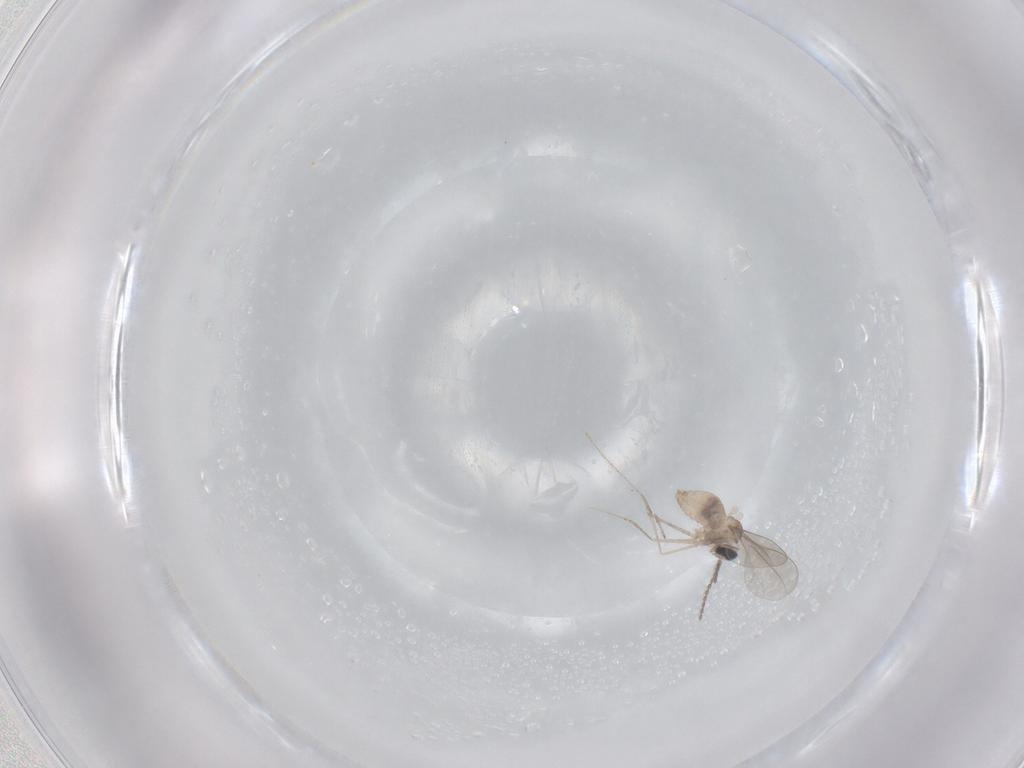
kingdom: Animalia
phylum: Arthropoda
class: Insecta
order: Diptera
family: Cecidomyiidae
